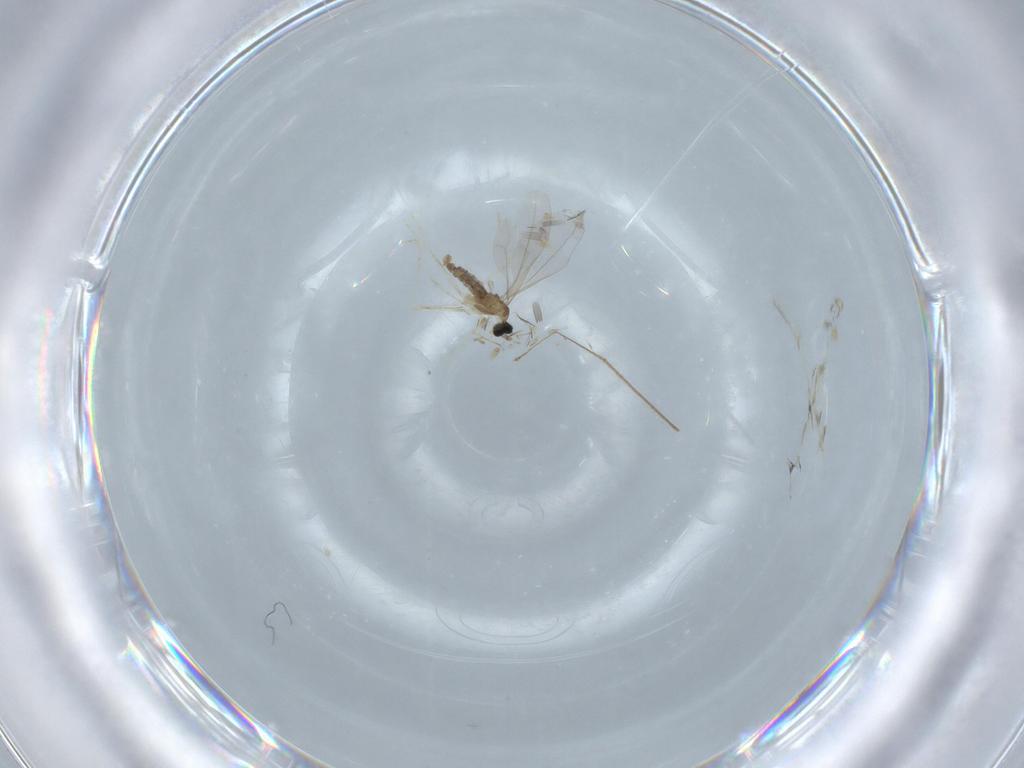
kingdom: Animalia
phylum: Arthropoda
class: Insecta
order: Diptera
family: Cecidomyiidae
